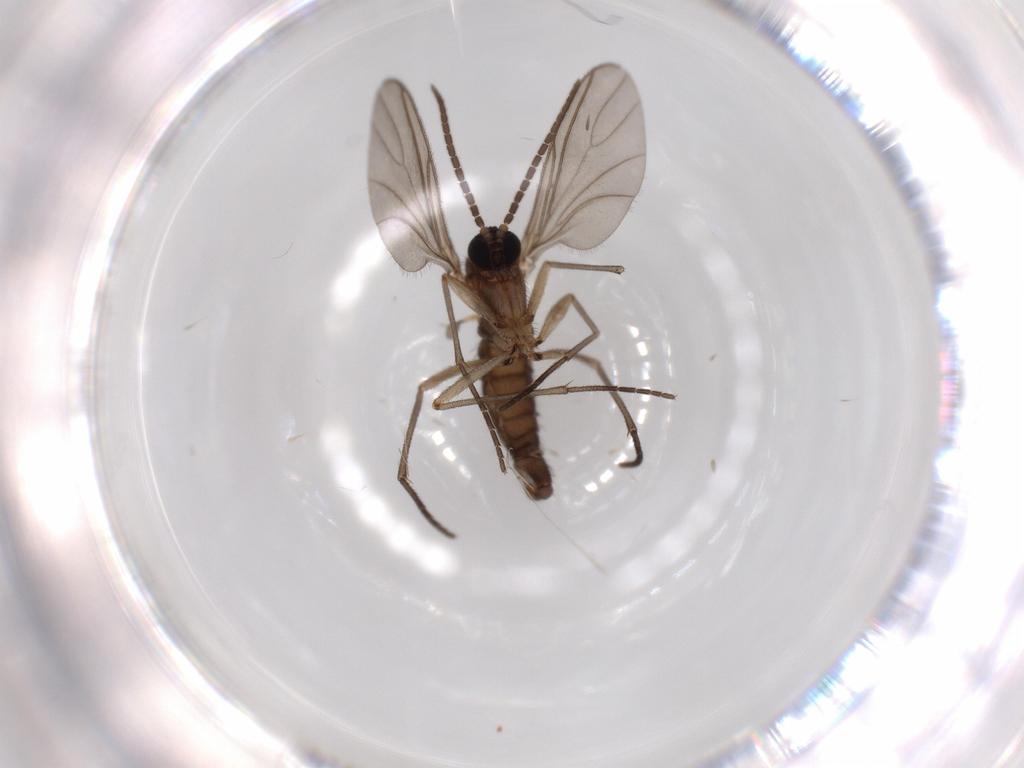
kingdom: Animalia
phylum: Arthropoda
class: Insecta
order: Diptera
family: Sciaridae
